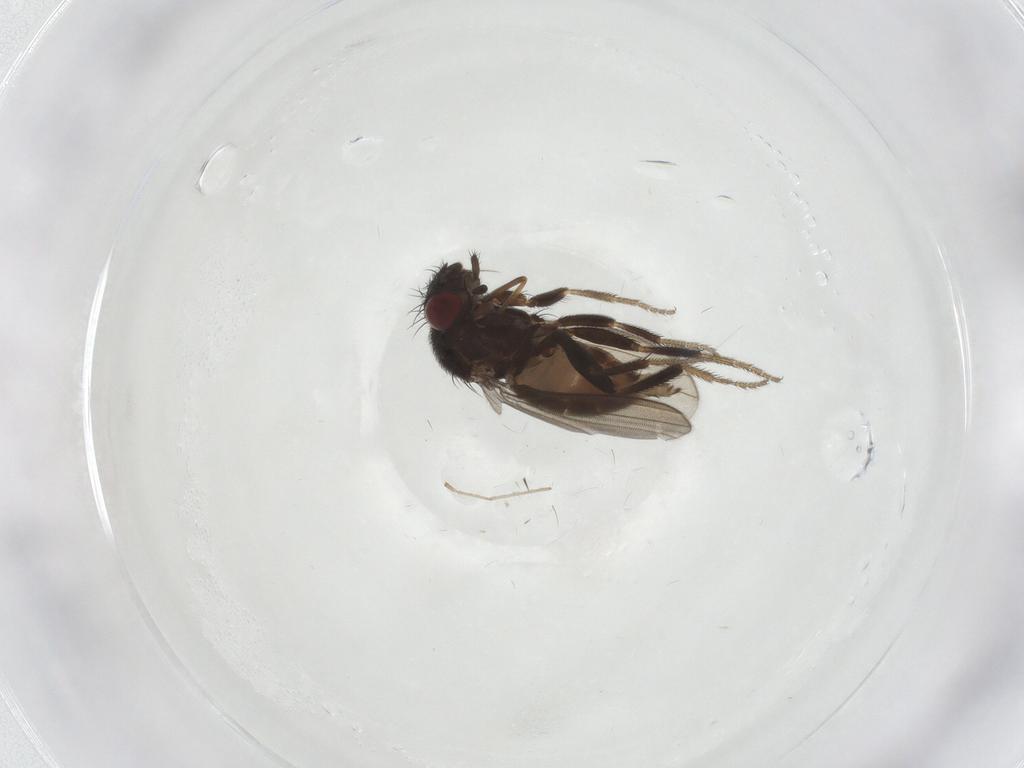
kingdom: Animalia
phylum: Arthropoda
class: Insecta
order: Diptera
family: Milichiidae
